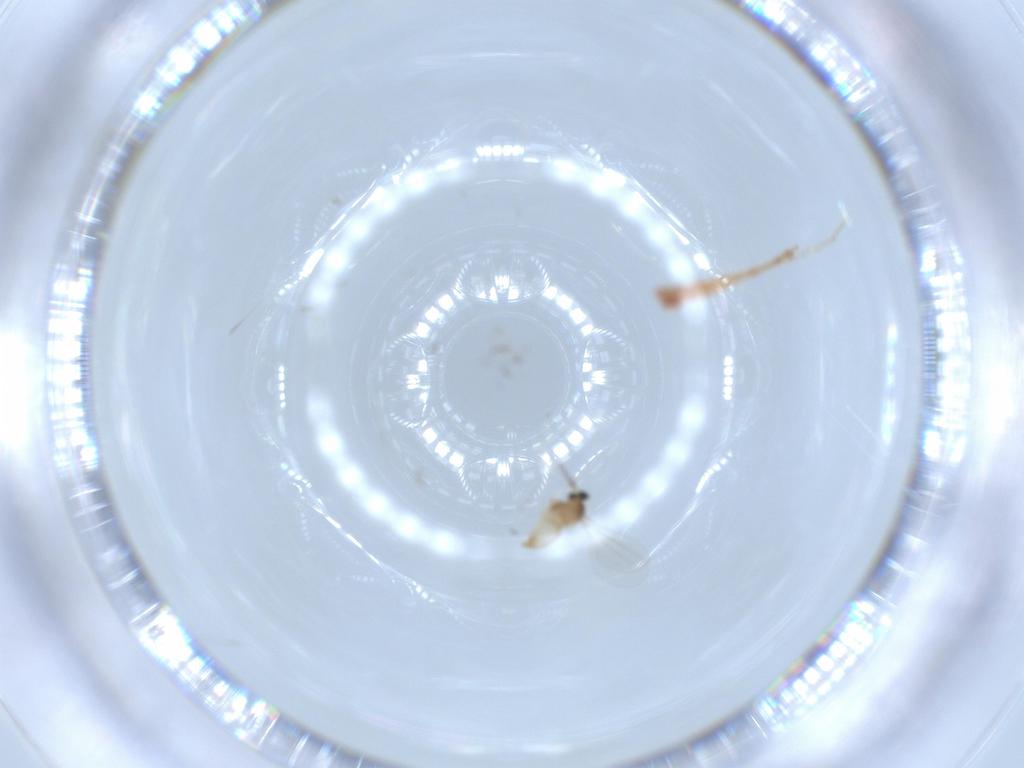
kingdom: Animalia
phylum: Arthropoda
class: Insecta
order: Diptera
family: Cecidomyiidae
